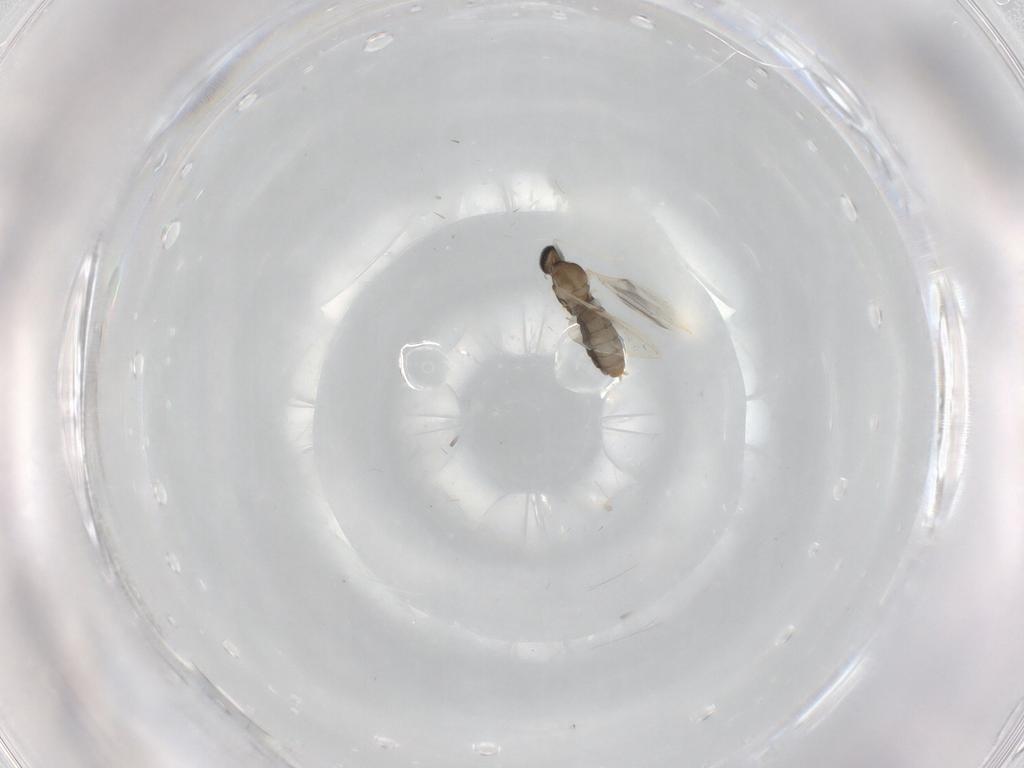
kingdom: Animalia
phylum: Arthropoda
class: Insecta
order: Diptera
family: Cecidomyiidae
